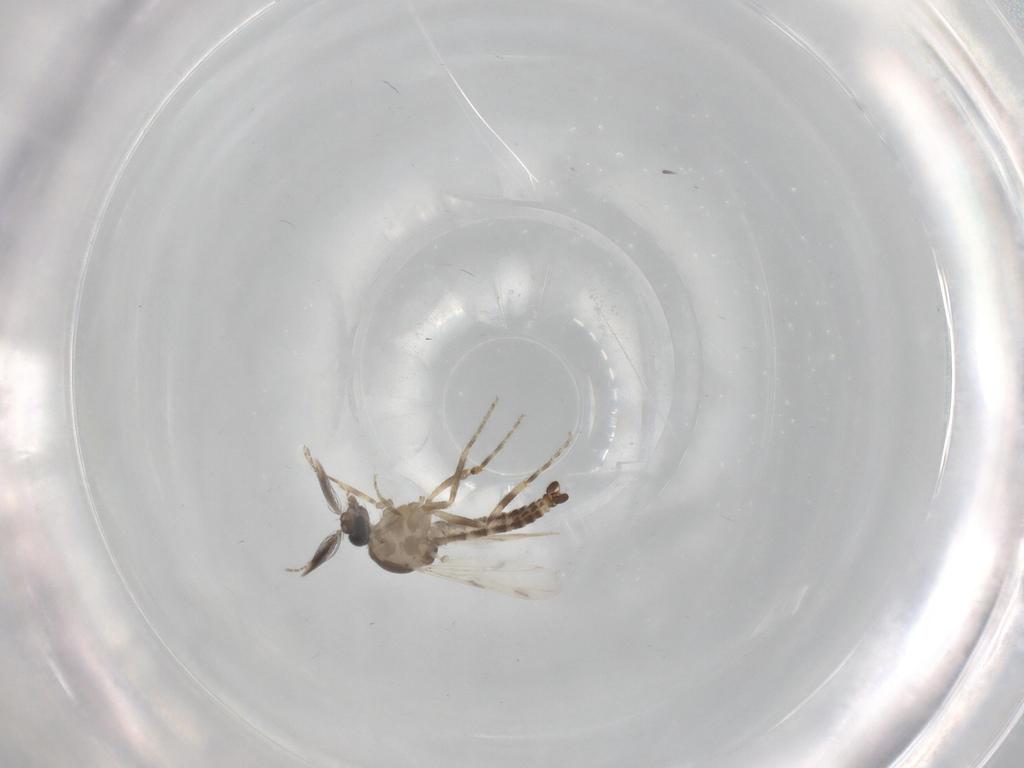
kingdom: Animalia
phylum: Arthropoda
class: Insecta
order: Diptera
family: Ceratopogonidae
